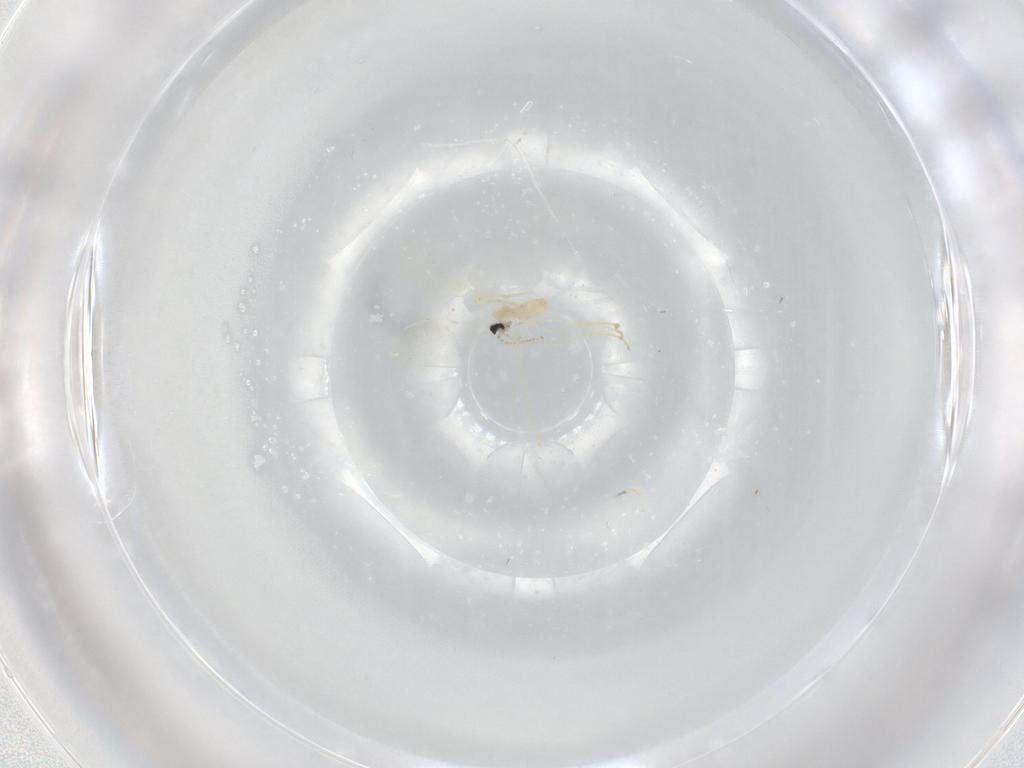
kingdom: Animalia
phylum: Arthropoda
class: Insecta
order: Diptera
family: Cecidomyiidae
